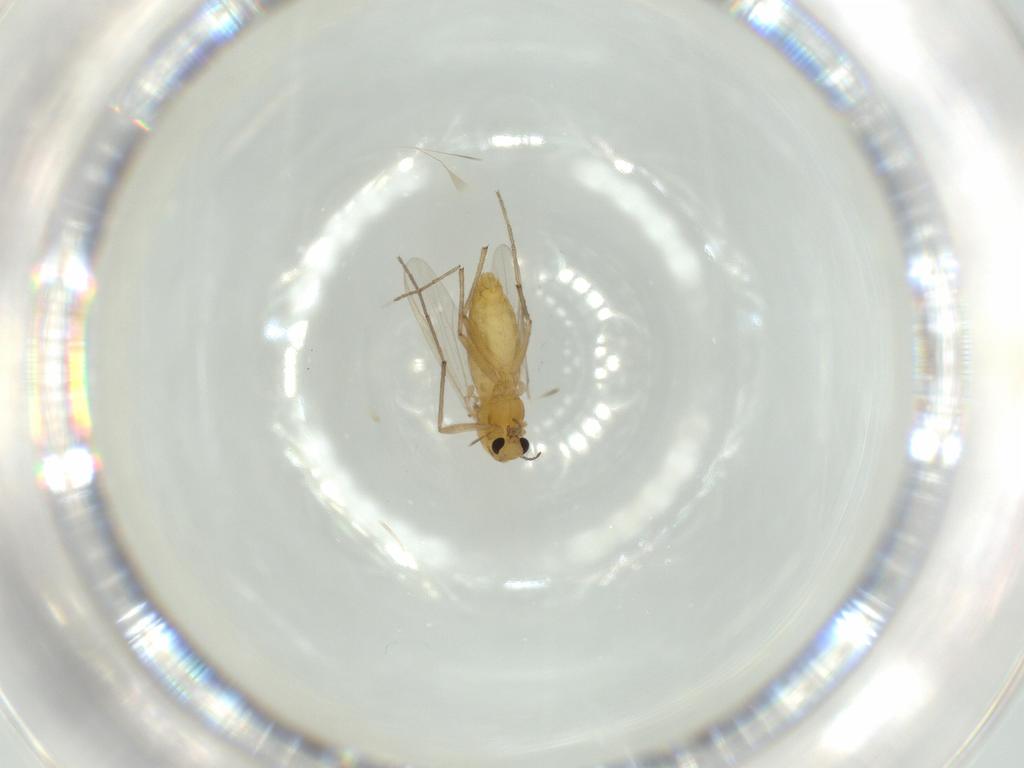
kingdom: Animalia
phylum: Arthropoda
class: Insecta
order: Diptera
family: Chironomidae
